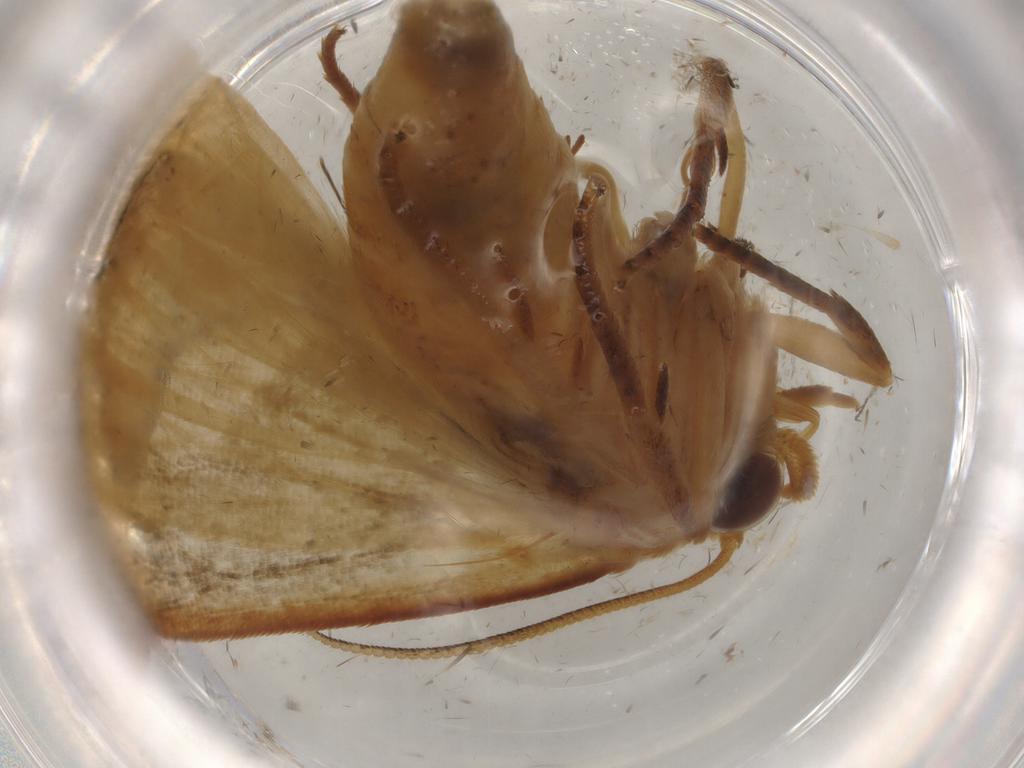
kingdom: Animalia
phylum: Arthropoda
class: Insecta
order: Lepidoptera
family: Noctuidae
